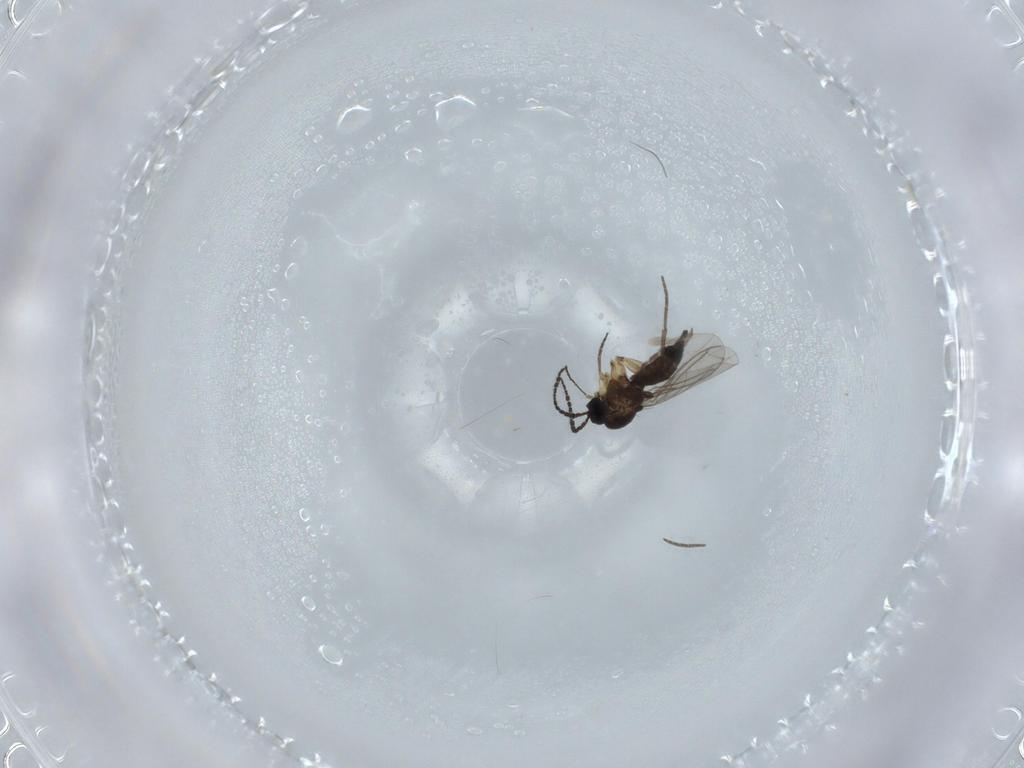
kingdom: Animalia
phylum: Arthropoda
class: Insecta
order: Diptera
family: Sciaridae
